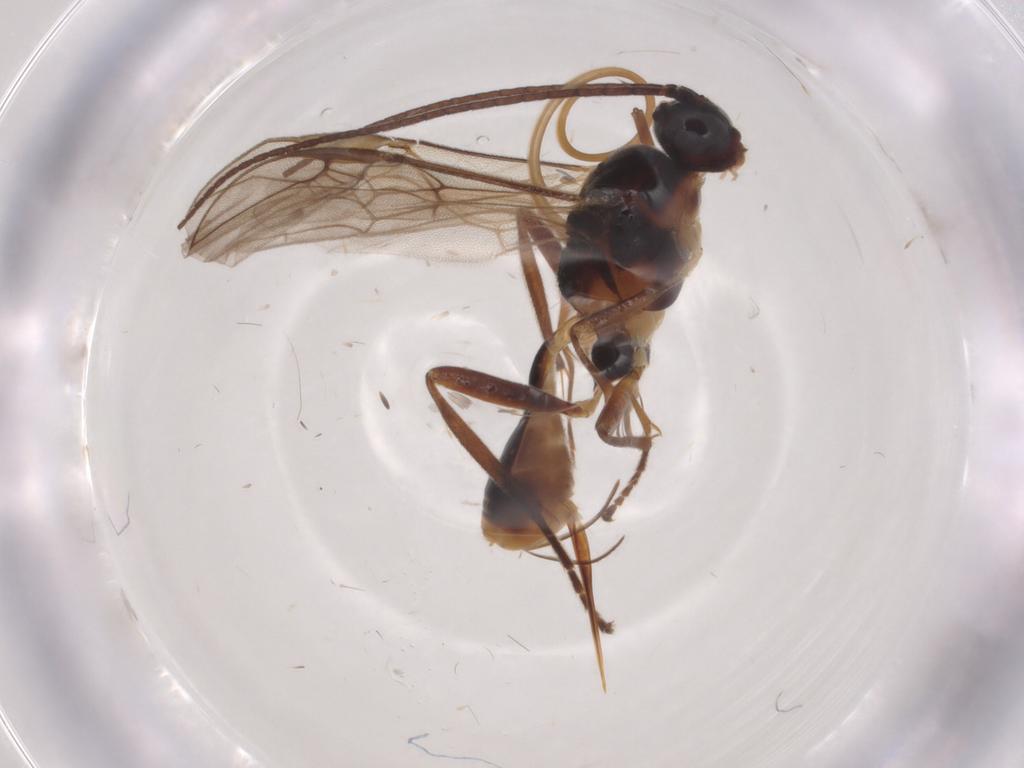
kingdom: Animalia
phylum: Arthropoda
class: Insecta
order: Hymenoptera
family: Braconidae
